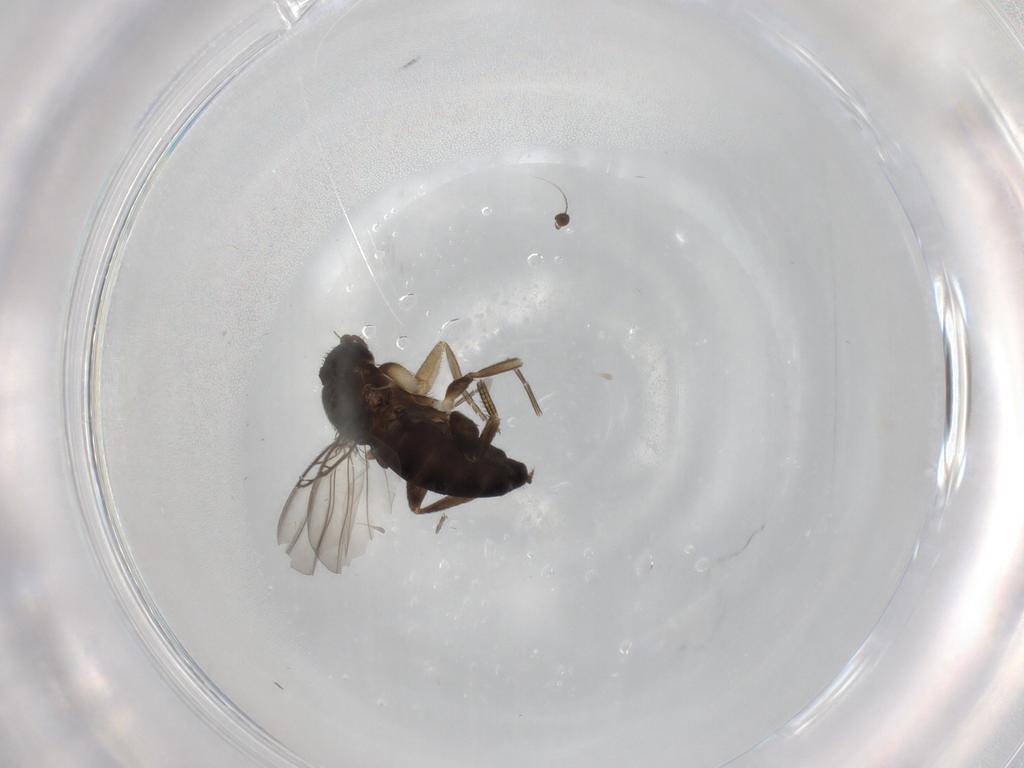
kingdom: Animalia
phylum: Arthropoda
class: Insecta
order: Diptera
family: Phoridae
